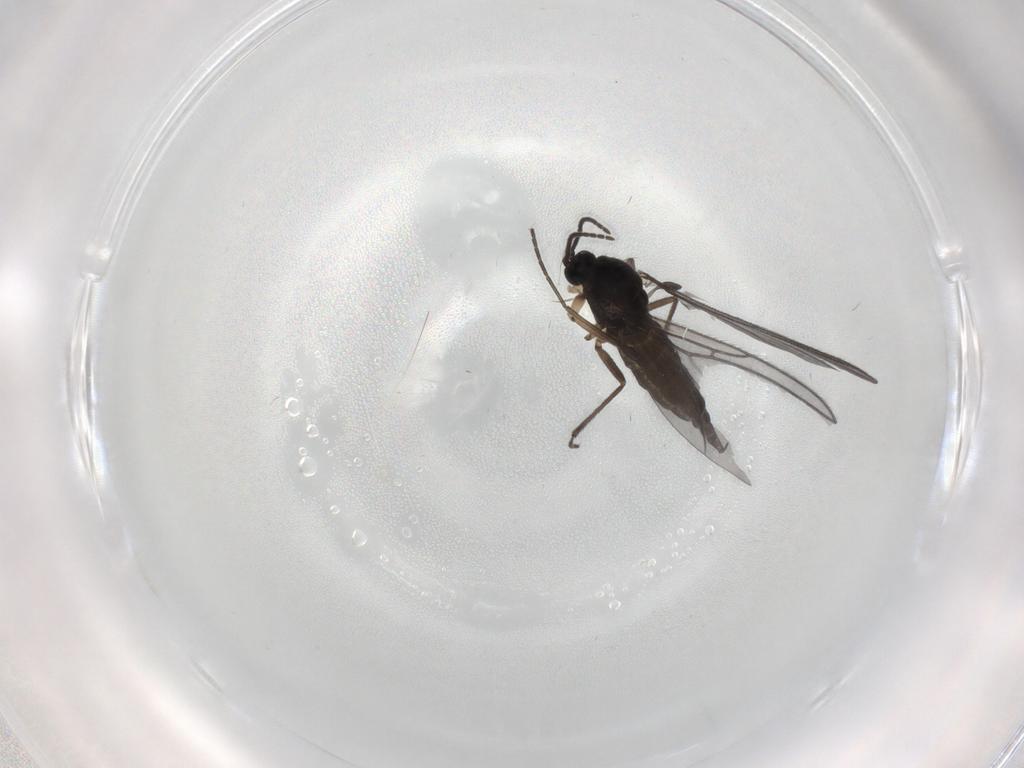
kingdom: Animalia
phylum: Arthropoda
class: Insecta
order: Diptera
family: Sciaridae
